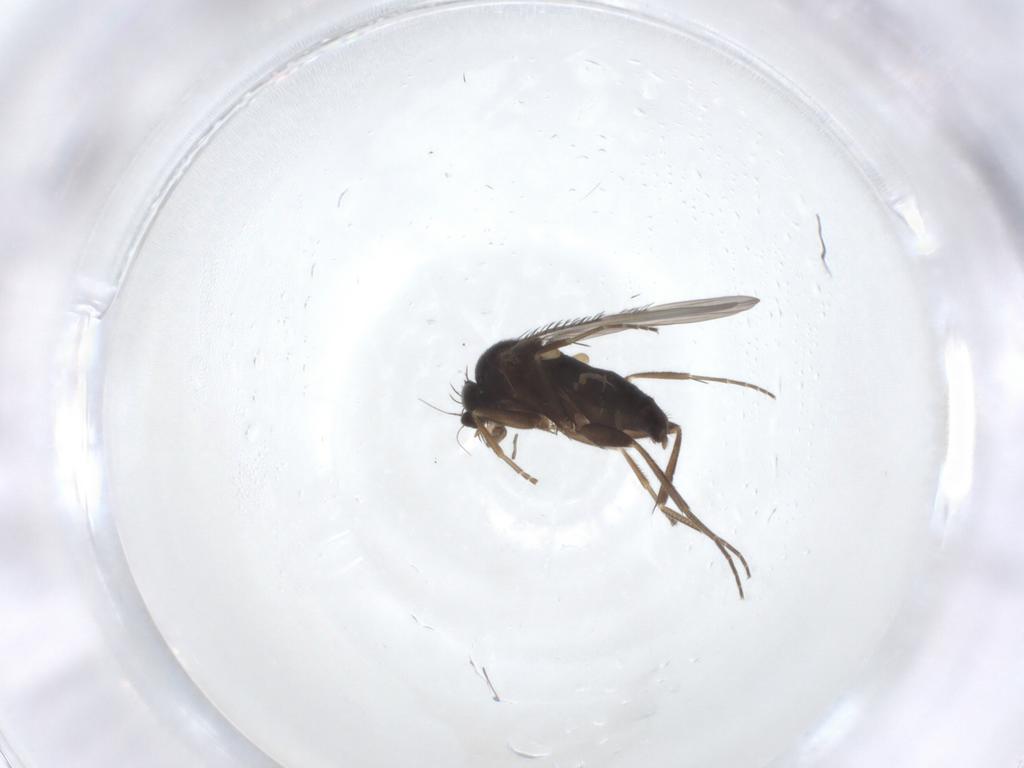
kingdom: Animalia
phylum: Arthropoda
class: Insecta
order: Diptera
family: Phoridae
